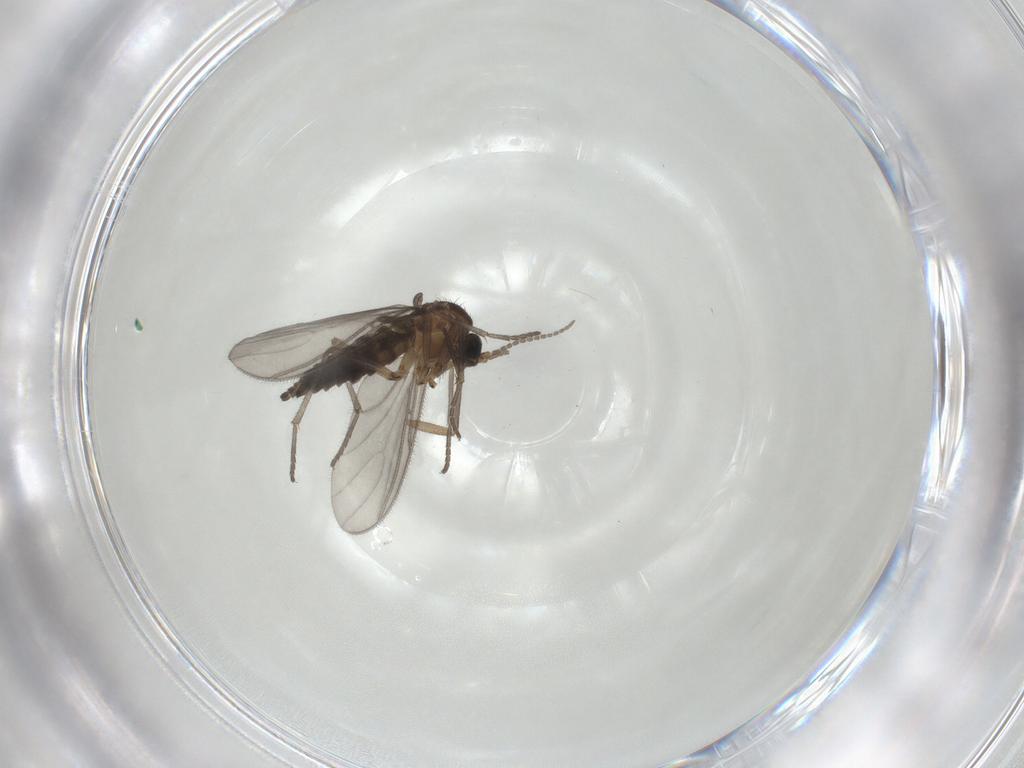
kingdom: Animalia
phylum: Arthropoda
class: Insecta
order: Diptera
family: Sciaridae
